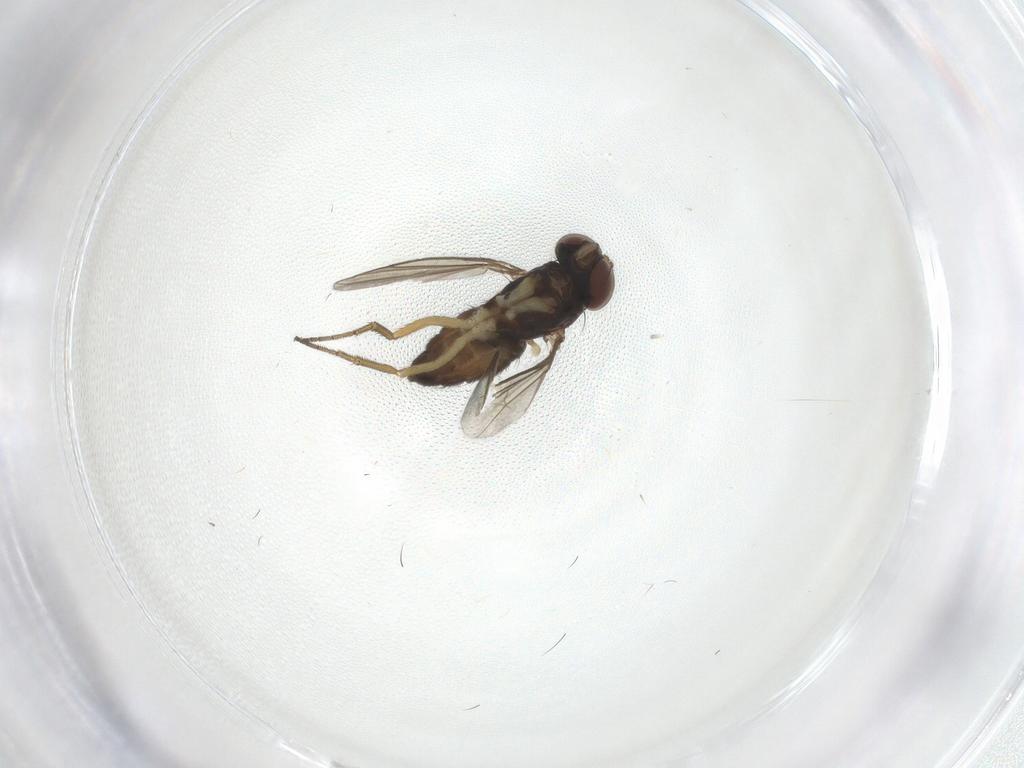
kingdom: Animalia
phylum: Arthropoda
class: Insecta
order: Diptera
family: Dolichopodidae
